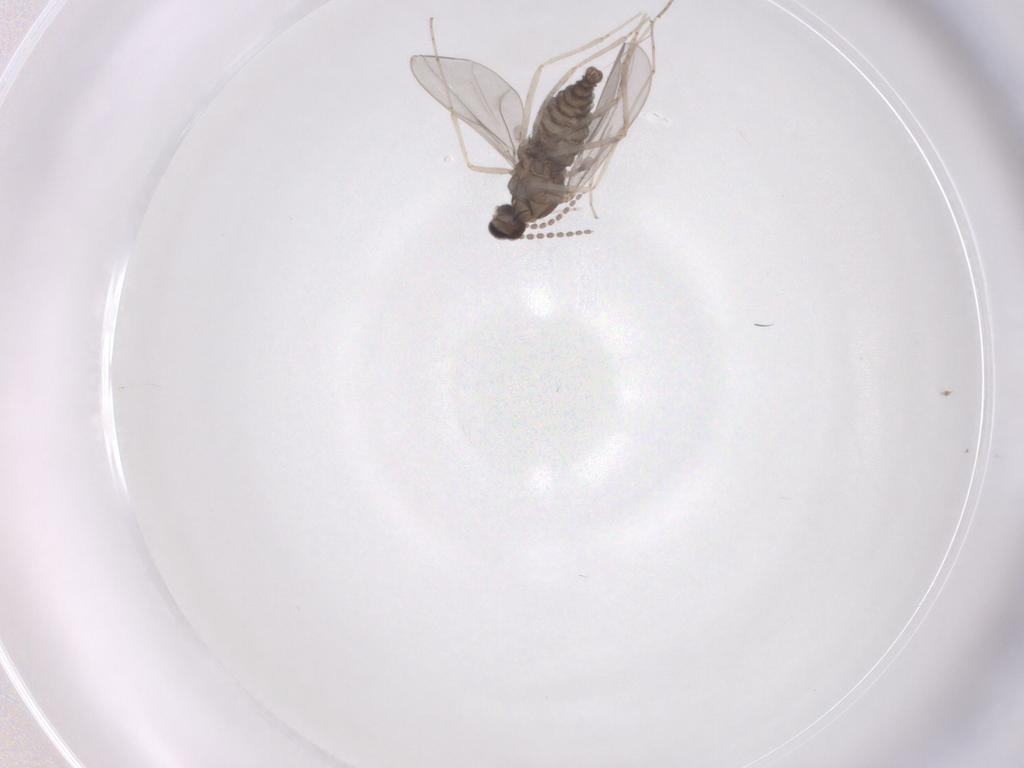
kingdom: Animalia
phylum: Arthropoda
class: Insecta
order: Diptera
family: Cecidomyiidae
